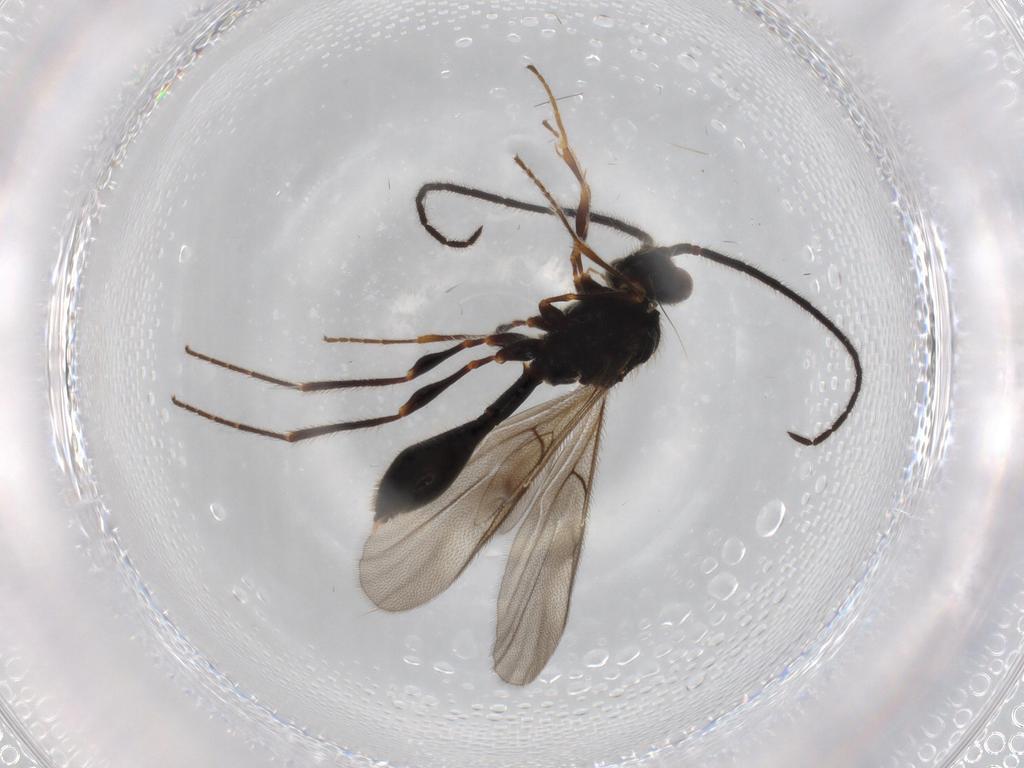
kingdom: Animalia
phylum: Arthropoda
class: Insecta
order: Hymenoptera
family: Diapriidae
